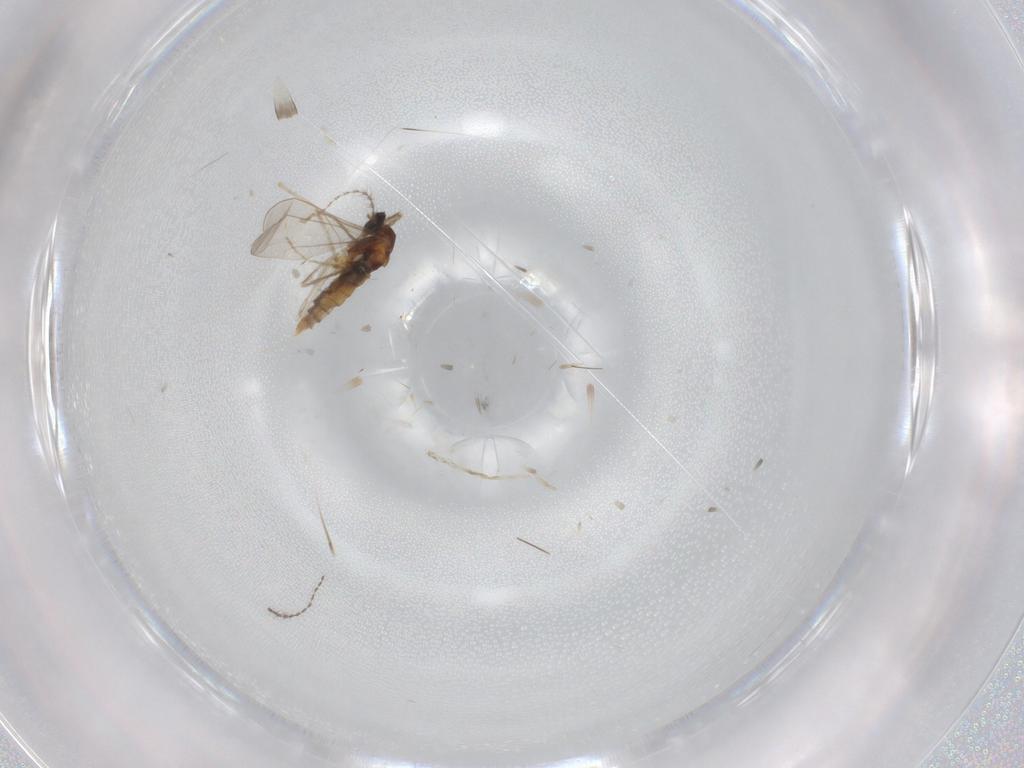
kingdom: Animalia
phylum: Arthropoda
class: Insecta
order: Diptera
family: Cecidomyiidae
